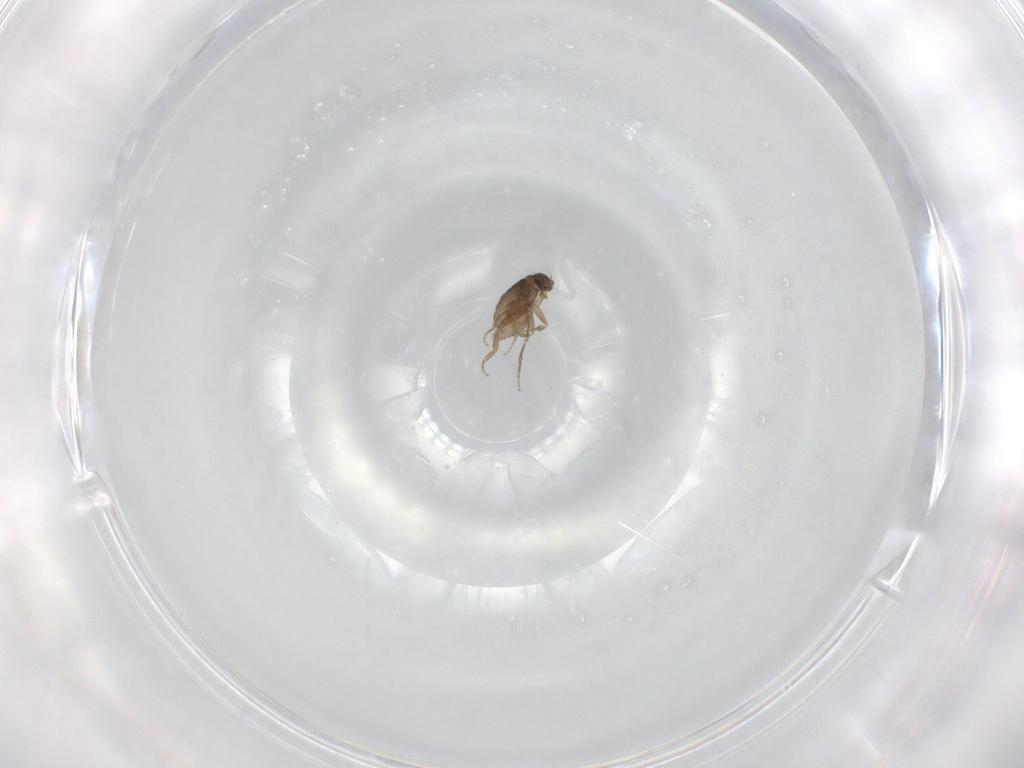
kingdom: Animalia
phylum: Arthropoda
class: Insecta
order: Diptera
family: Phoridae
